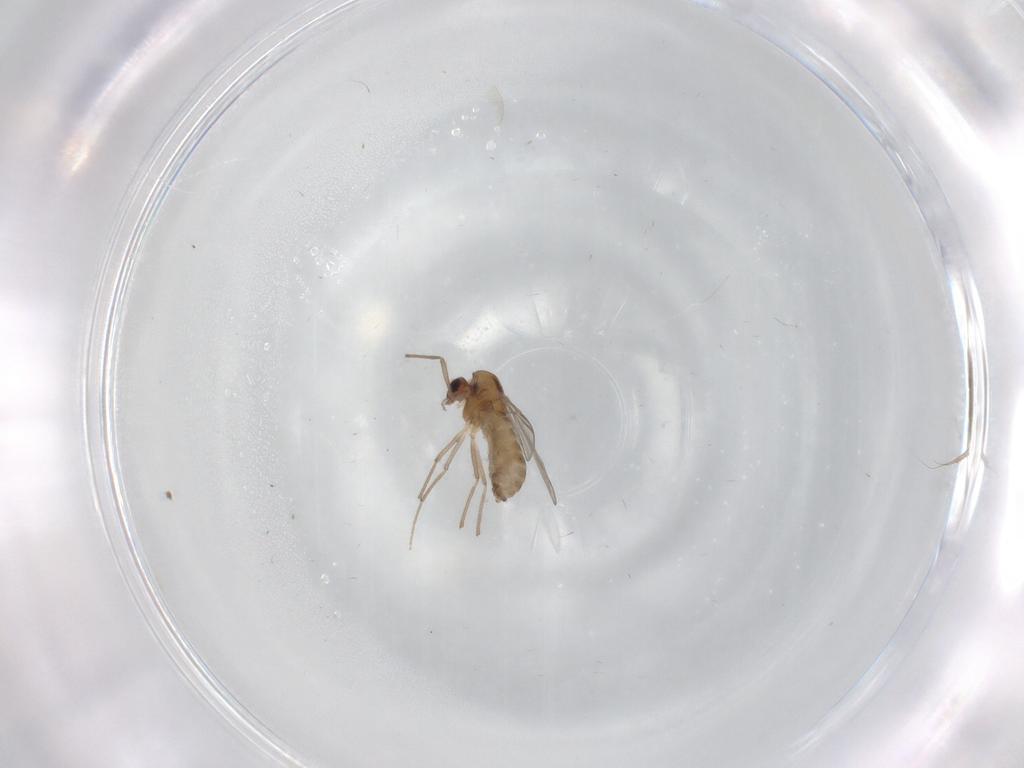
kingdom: Animalia
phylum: Arthropoda
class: Insecta
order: Diptera
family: Chironomidae
